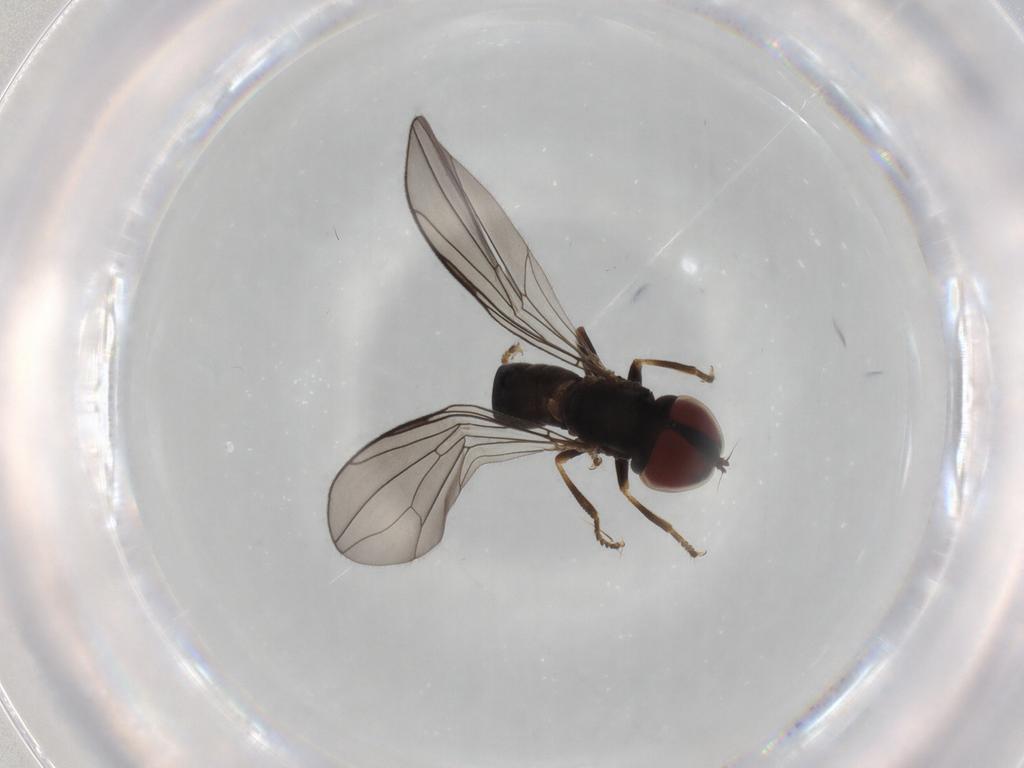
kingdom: Animalia
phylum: Arthropoda
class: Insecta
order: Diptera
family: Pipunculidae
